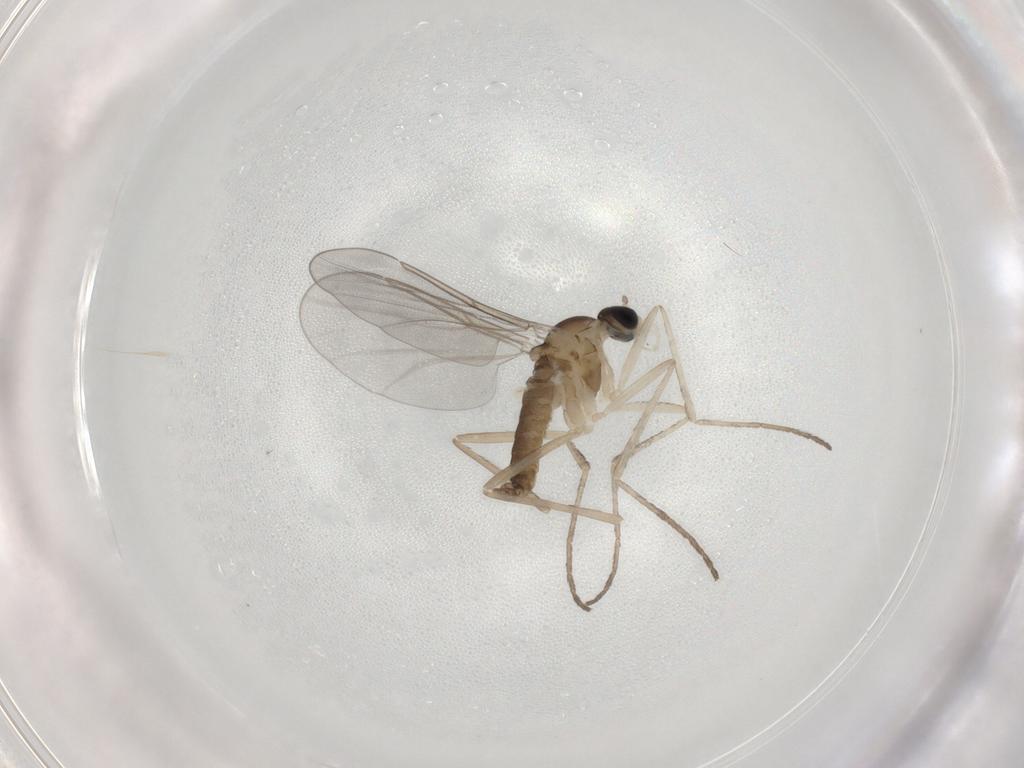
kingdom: Animalia
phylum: Arthropoda
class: Insecta
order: Diptera
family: Cecidomyiidae
